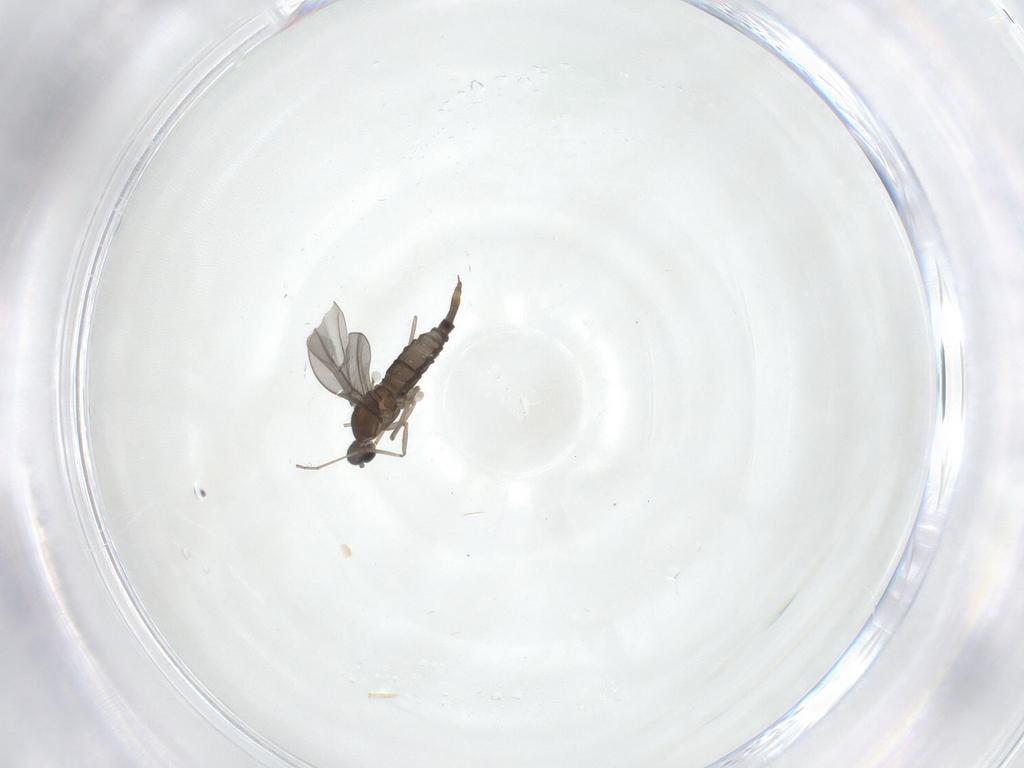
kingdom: Animalia
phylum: Arthropoda
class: Insecta
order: Diptera
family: Cecidomyiidae
